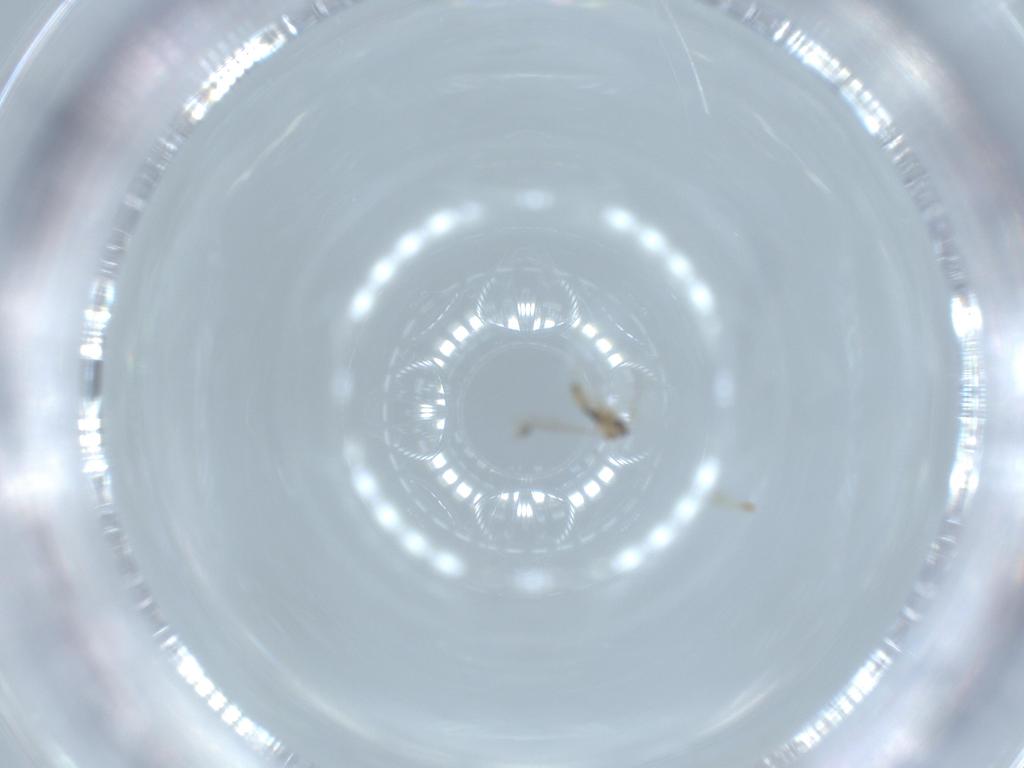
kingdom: Animalia
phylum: Arthropoda
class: Insecta
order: Diptera
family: Cecidomyiidae
